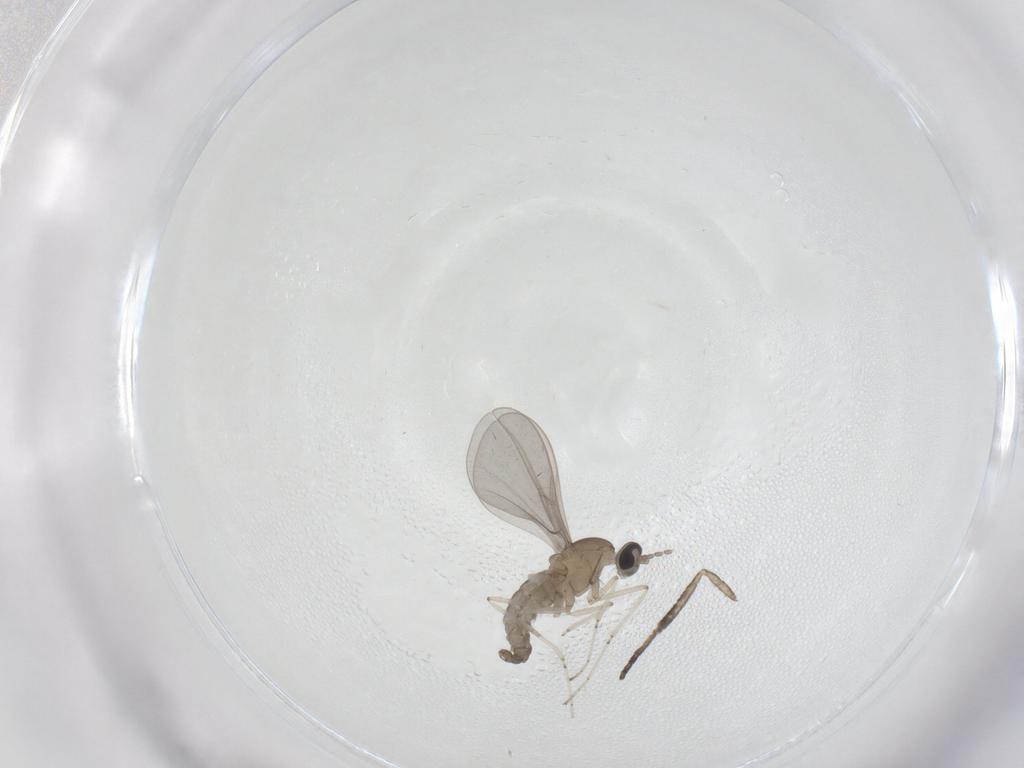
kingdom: Animalia
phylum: Arthropoda
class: Insecta
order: Diptera
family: Psychodidae
